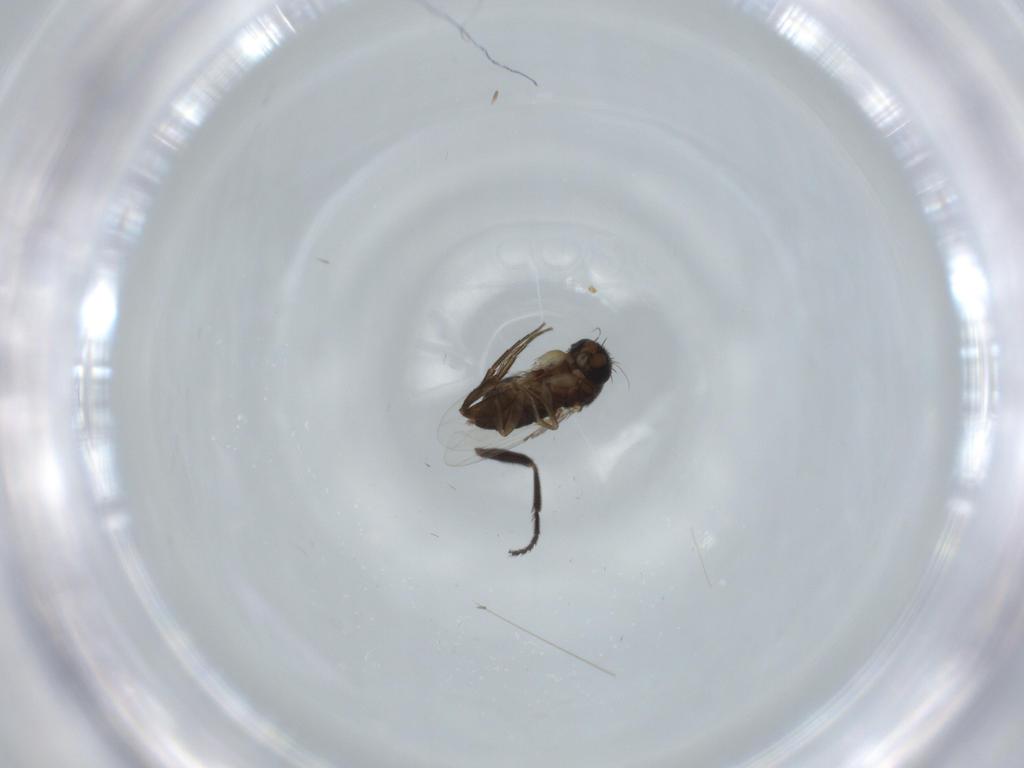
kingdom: Animalia
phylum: Arthropoda
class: Insecta
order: Diptera
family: Phoridae
